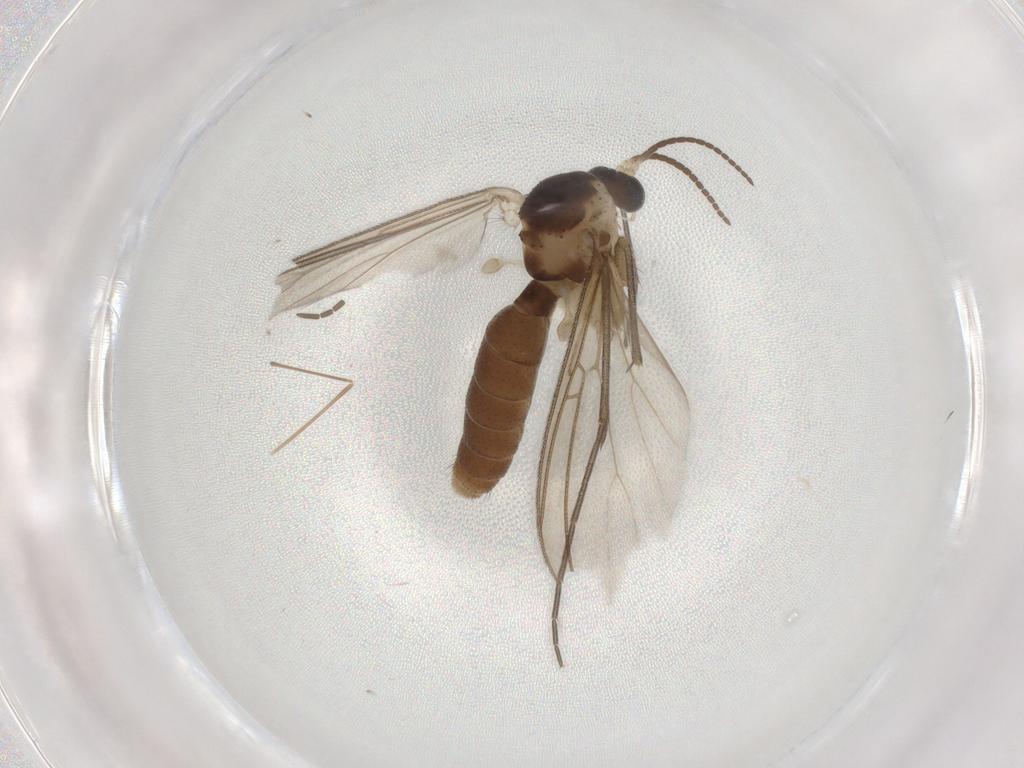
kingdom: Animalia
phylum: Arthropoda
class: Insecta
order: Diptera
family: Mycetophilidae
